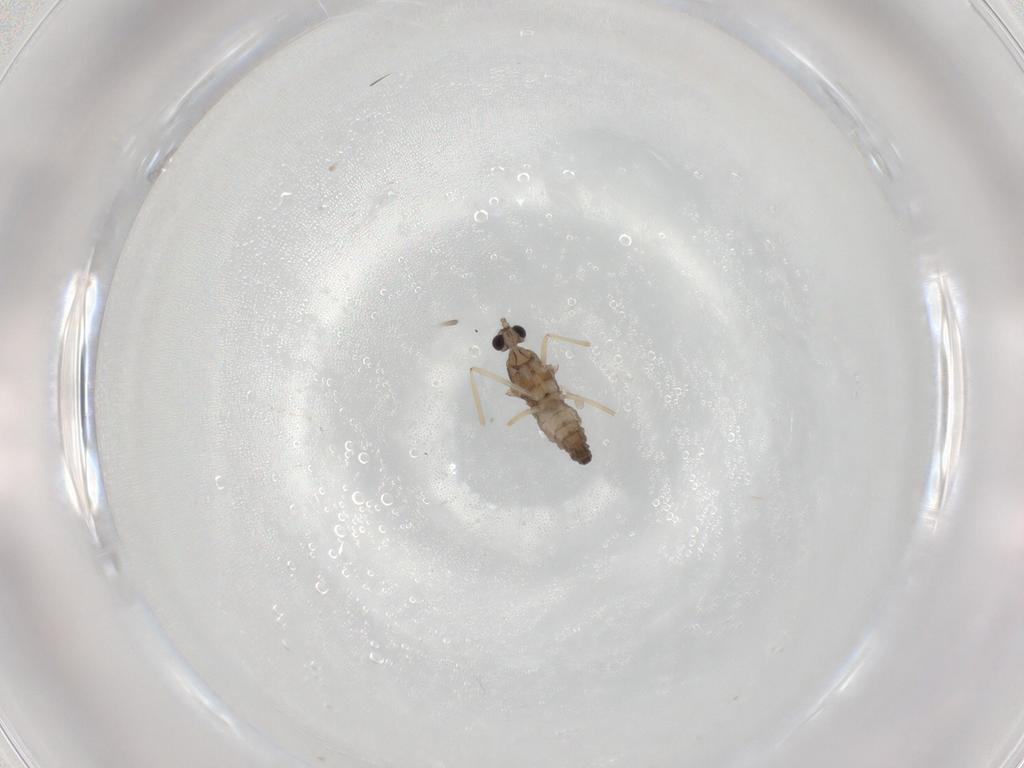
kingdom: Animalia
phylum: Arthropoda
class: Insecta
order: Diptera
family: Cecidomyiidae
